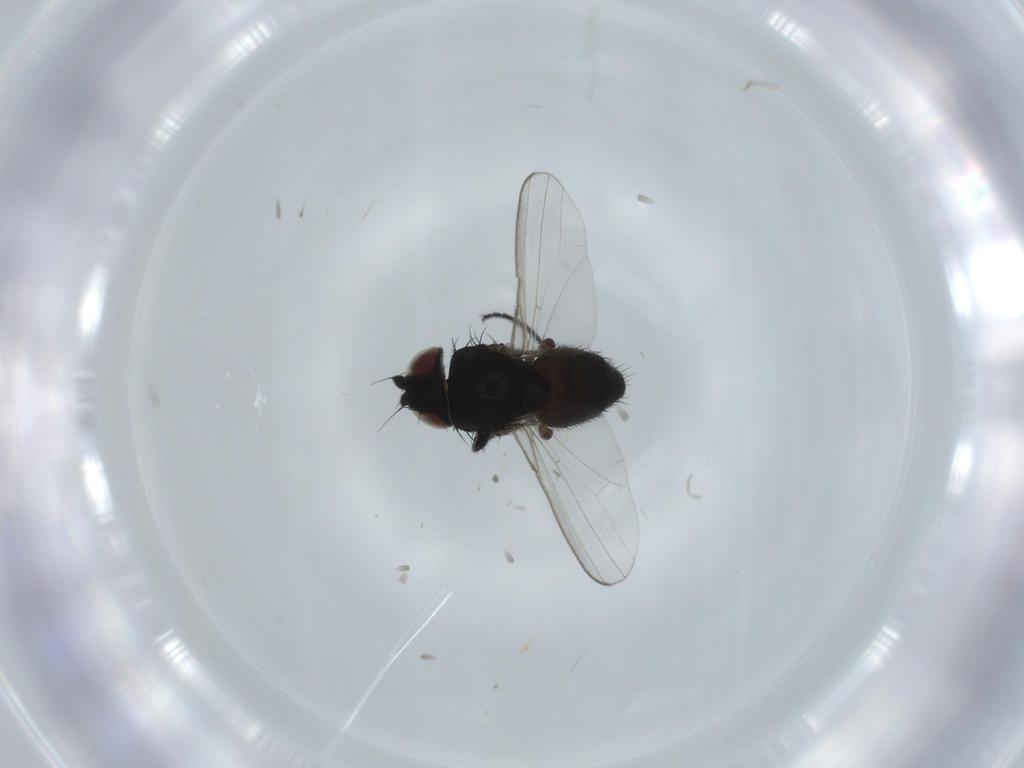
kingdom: Animalia
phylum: Arthropoda
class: Insecta
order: Diptera
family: Milichiidae
